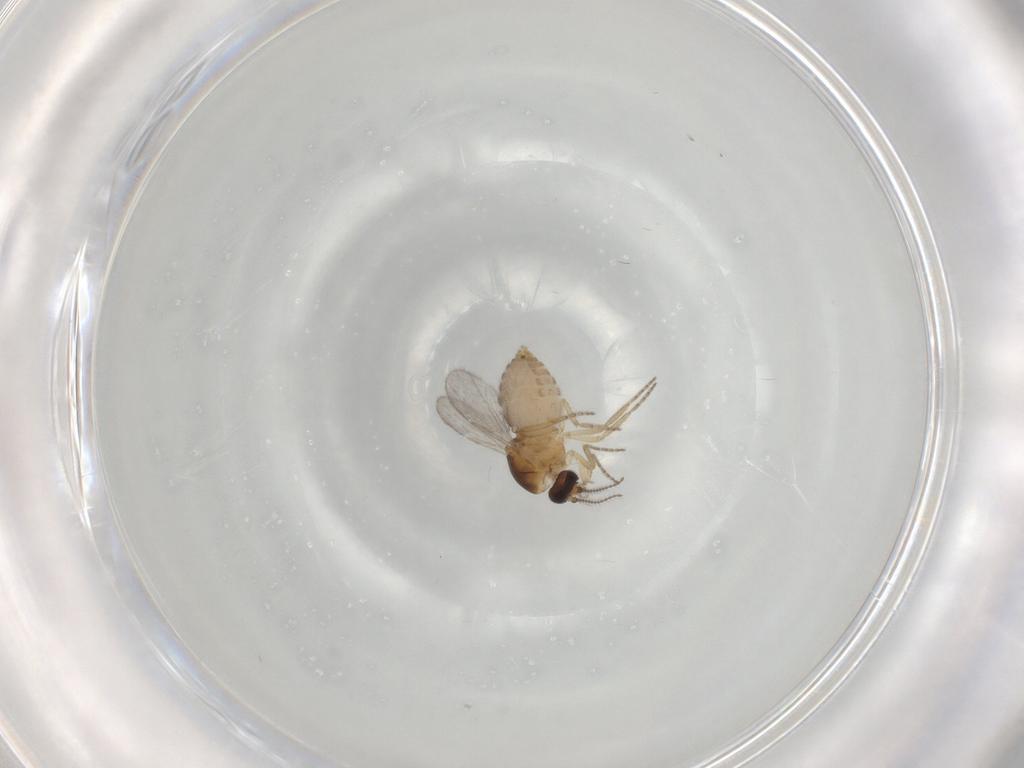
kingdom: Animalia
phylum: Arthropoda
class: Insecta
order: Diptera
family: Ceratopogonidae
